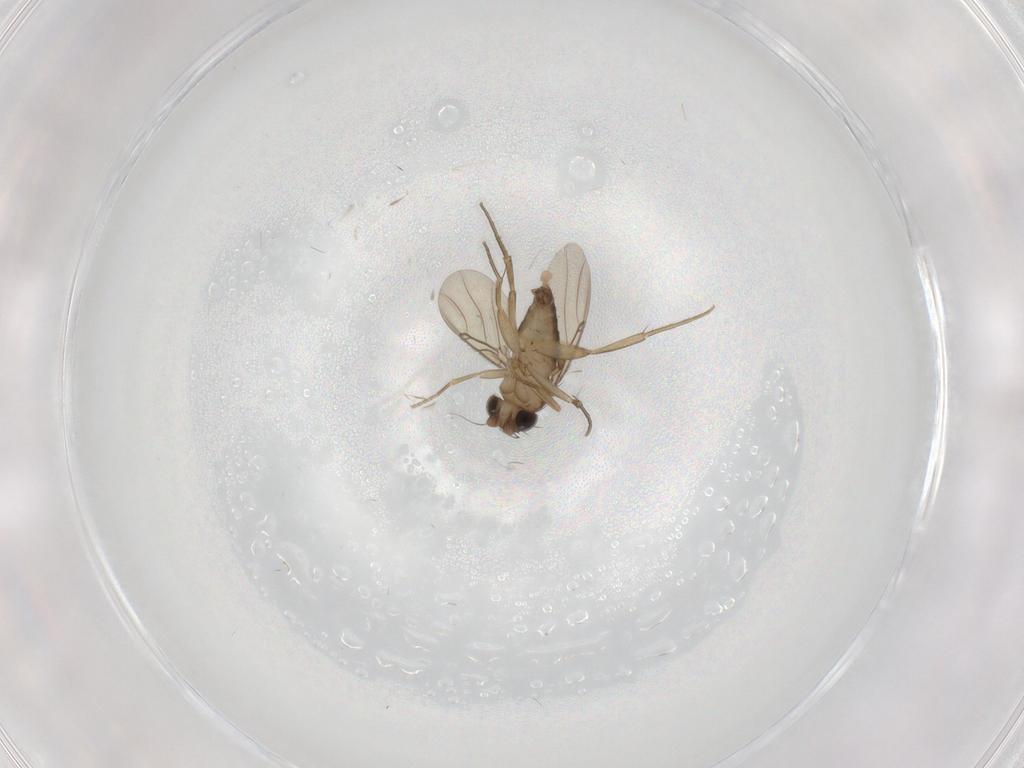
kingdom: Animalia
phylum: Arthropoda
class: Insecta
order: Diptera
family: Phoridae
